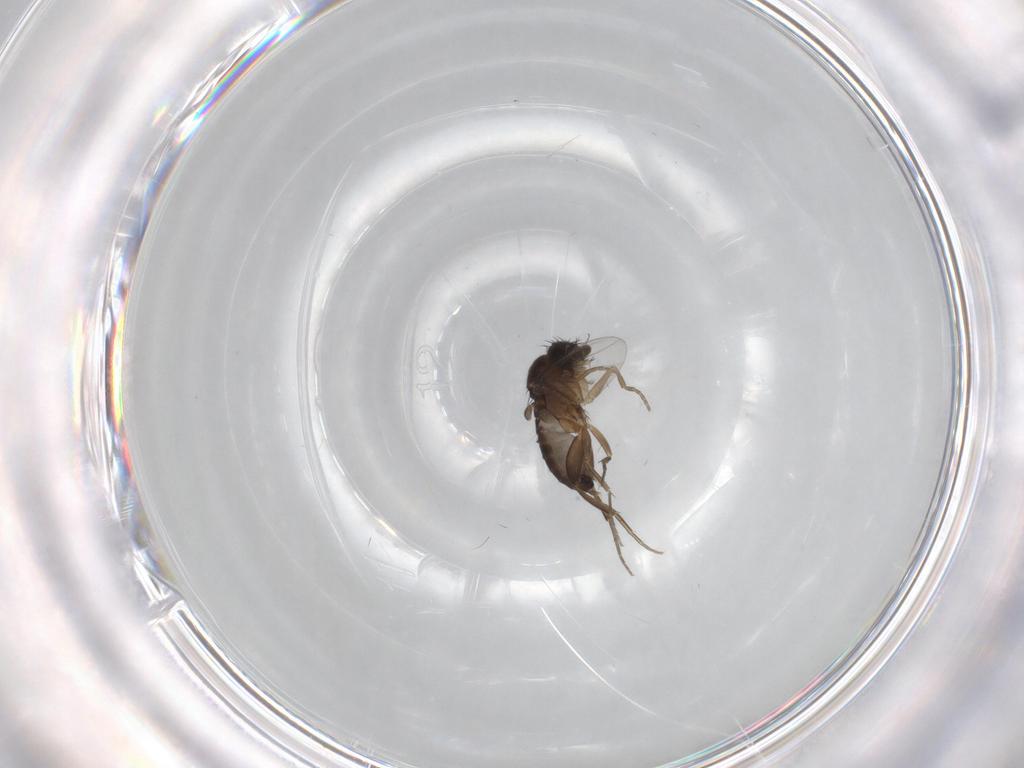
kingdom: Animalia
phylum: Arthropoda
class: Insecta
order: Diptera
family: Phoridae
